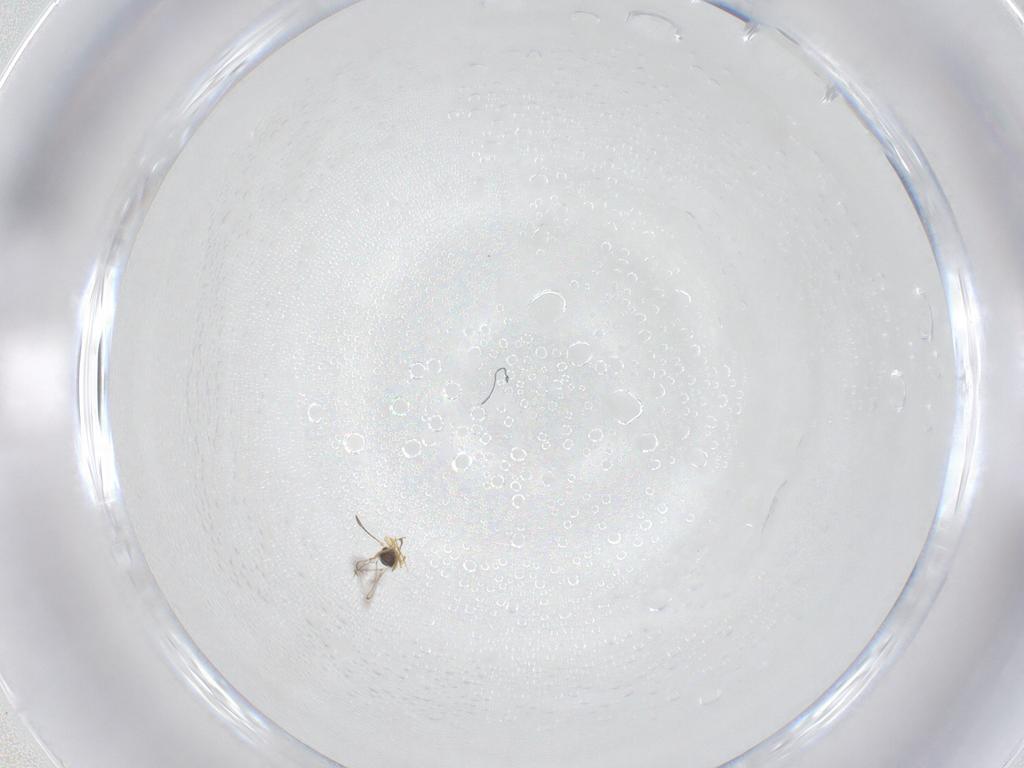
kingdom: Animalia
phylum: Arthropoda
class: Insecta
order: Hymenoptera
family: Mymaridae
